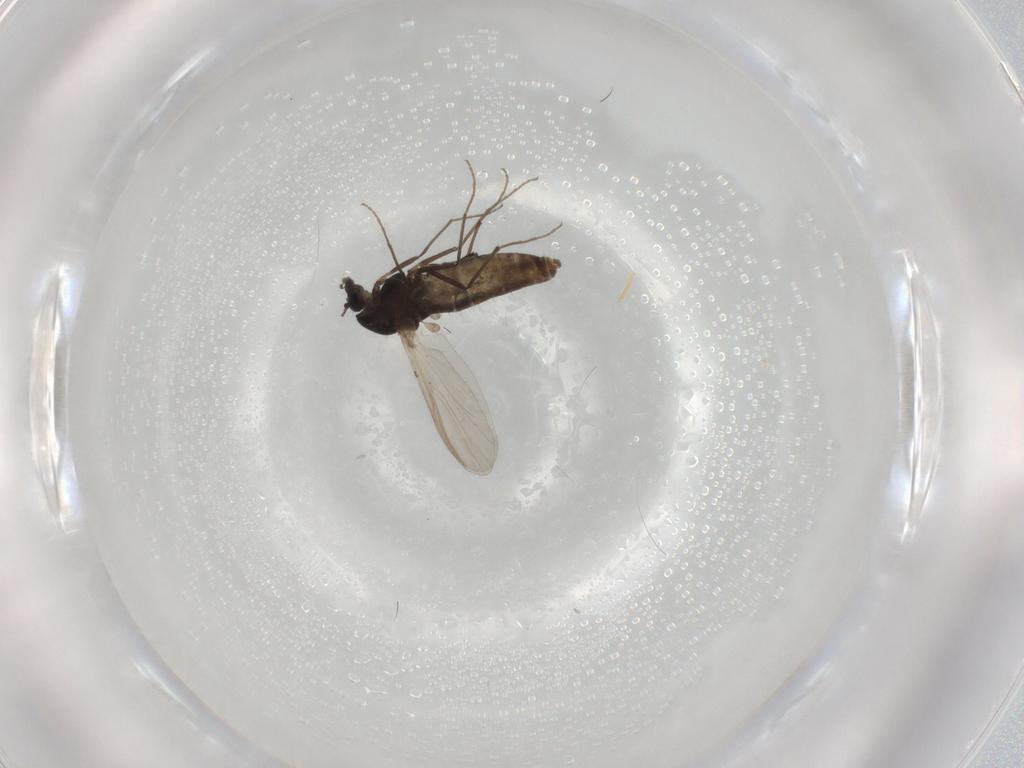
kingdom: Animalia
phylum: Arthropoda
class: Insecta
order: Diptera
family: Chironomidae
